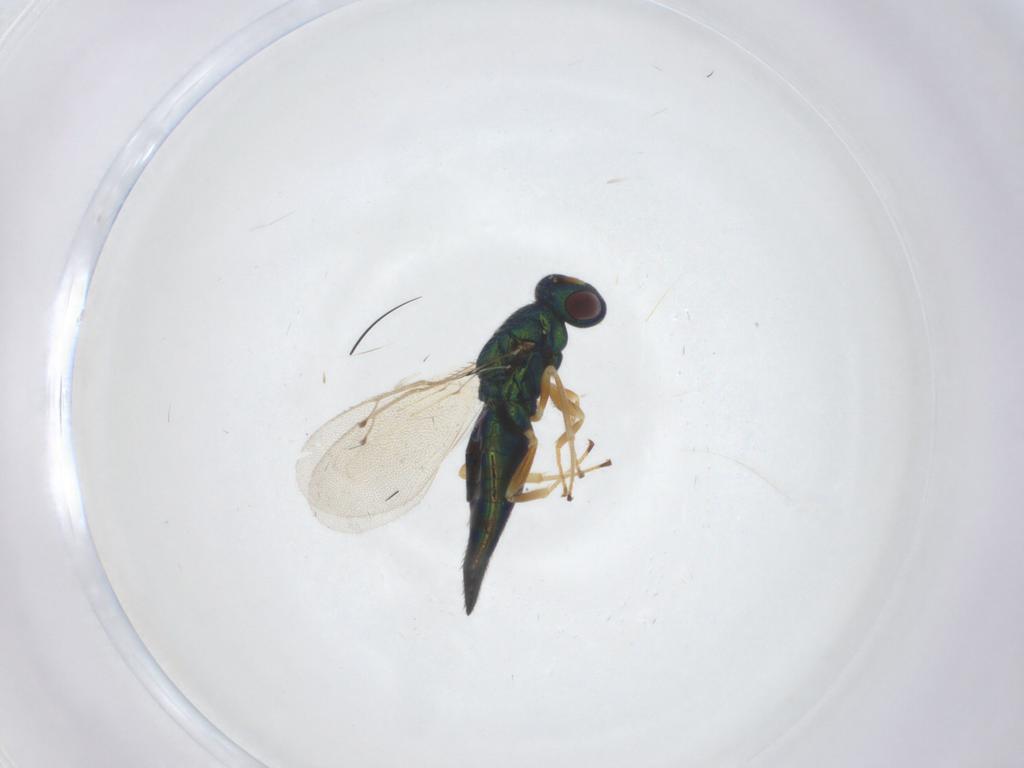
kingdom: Animalia
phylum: Arthropoda
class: Insecta
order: Hymenoptera
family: Pteromalidae
